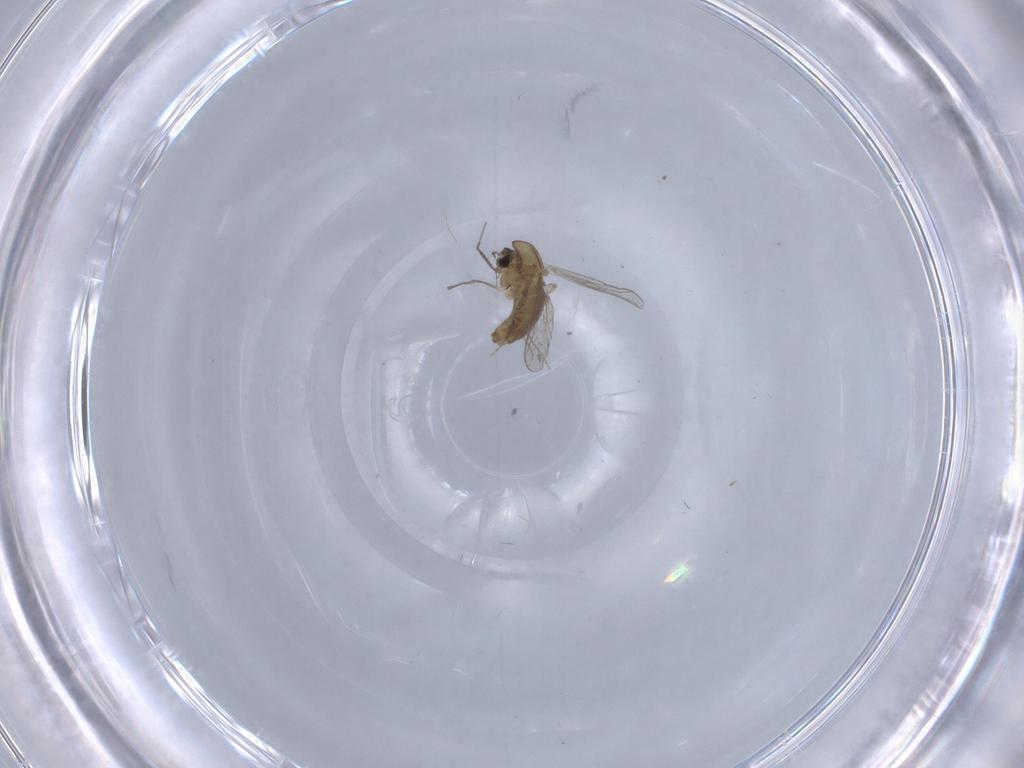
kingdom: Animalia
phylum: Arthropoda
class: Insecta
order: Diptera
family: Chironomidae
